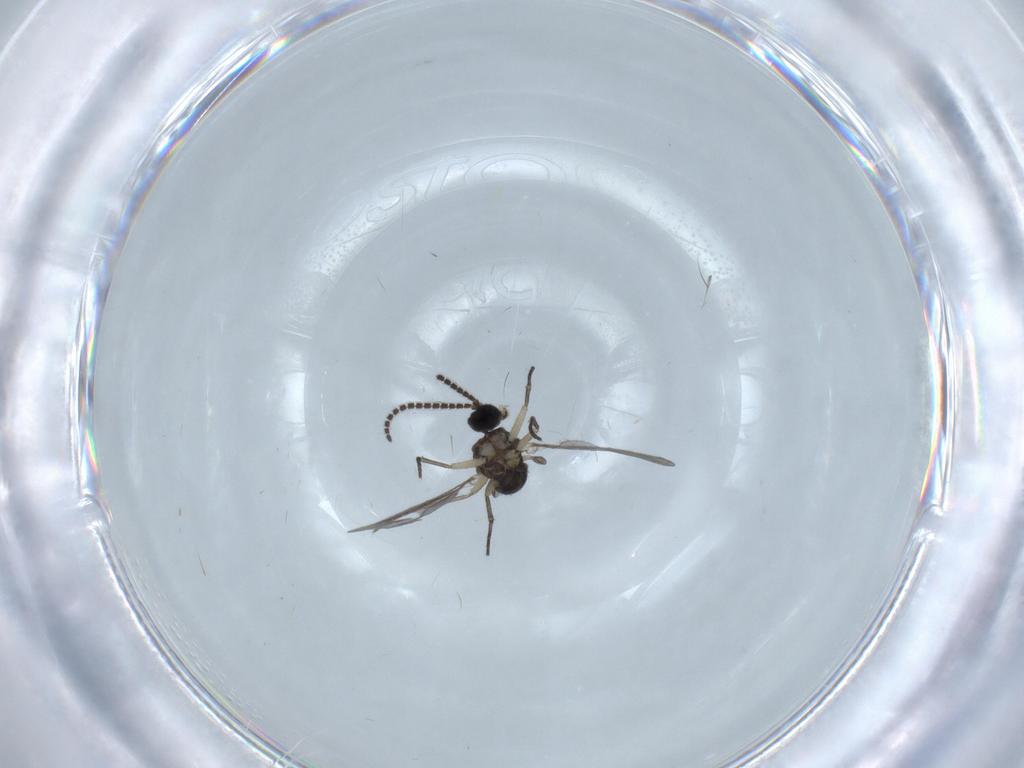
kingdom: Animalia
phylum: Arthropoda
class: Insecta
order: Diptera
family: Sciaridae
